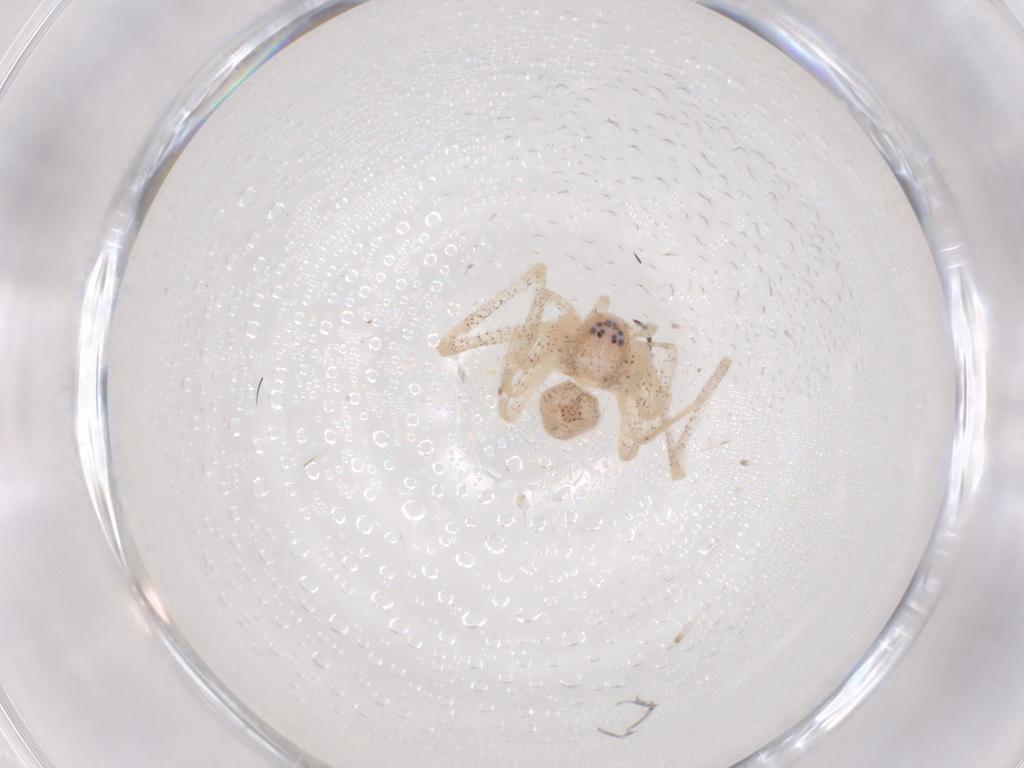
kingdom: Animalia
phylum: Arthropoda
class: Arachnida
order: Araneae
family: Philodromidae
